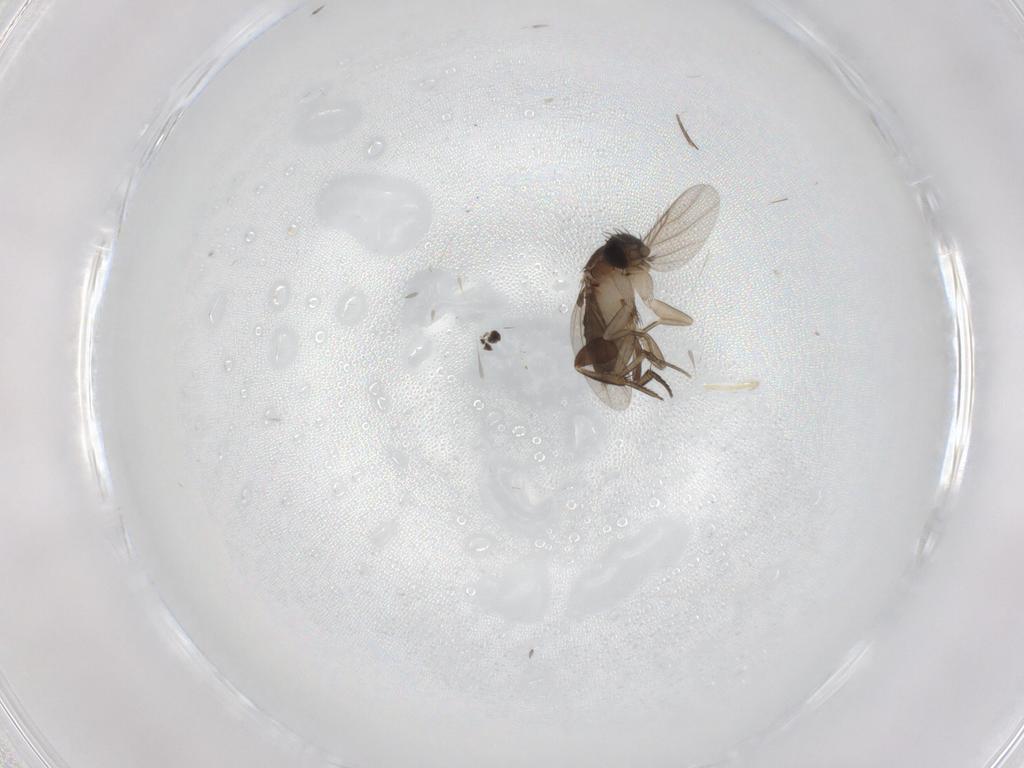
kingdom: Animalia
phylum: Arthropoda
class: Insecta
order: Diptera
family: Phoridae
